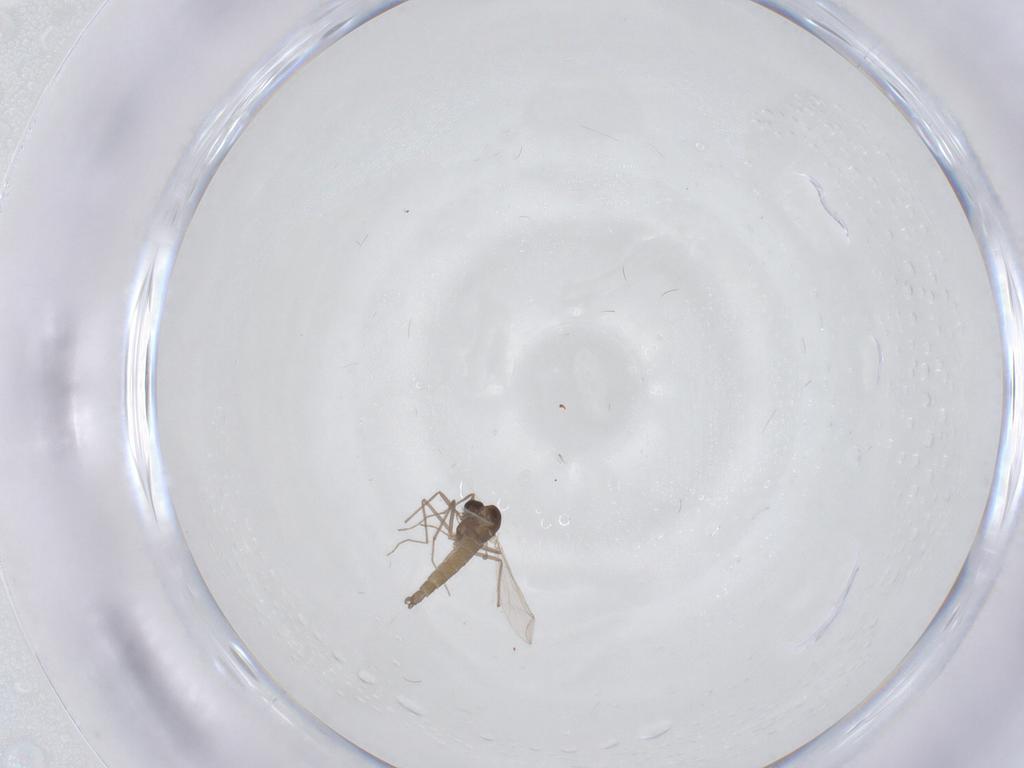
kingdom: Animalia
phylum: Arthropoda
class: Insecta
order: Diptera
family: Chironomidae
